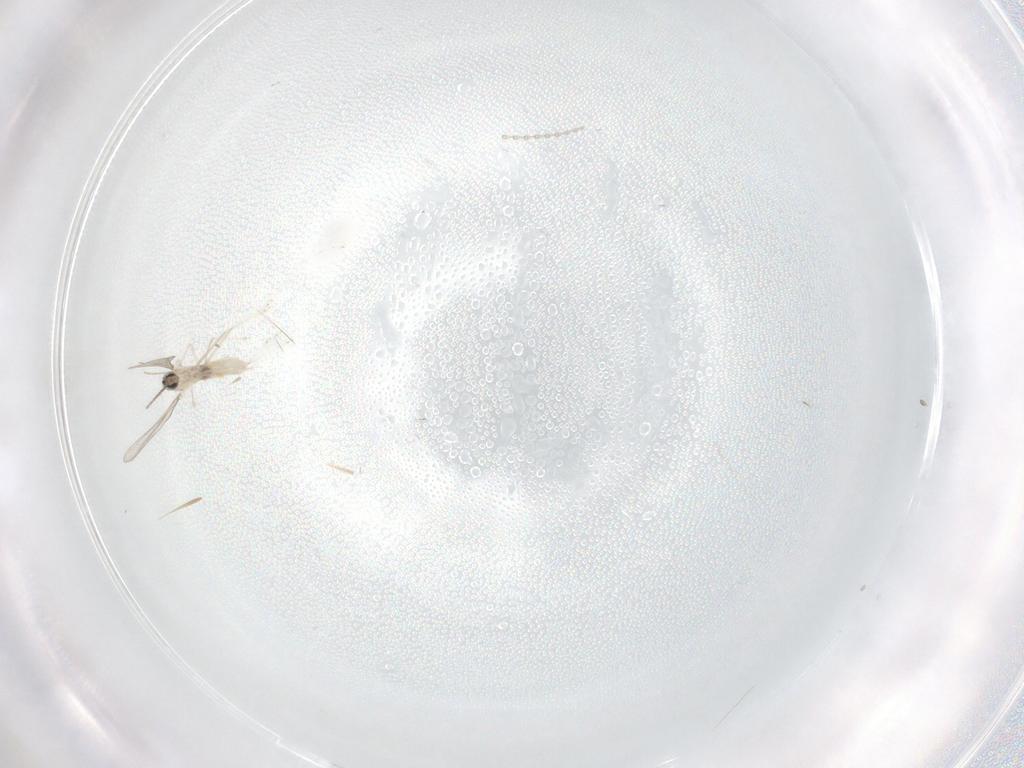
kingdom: Animalia
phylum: Arthropoda
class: Insecta
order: Diptera
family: Cecidomyiidae
